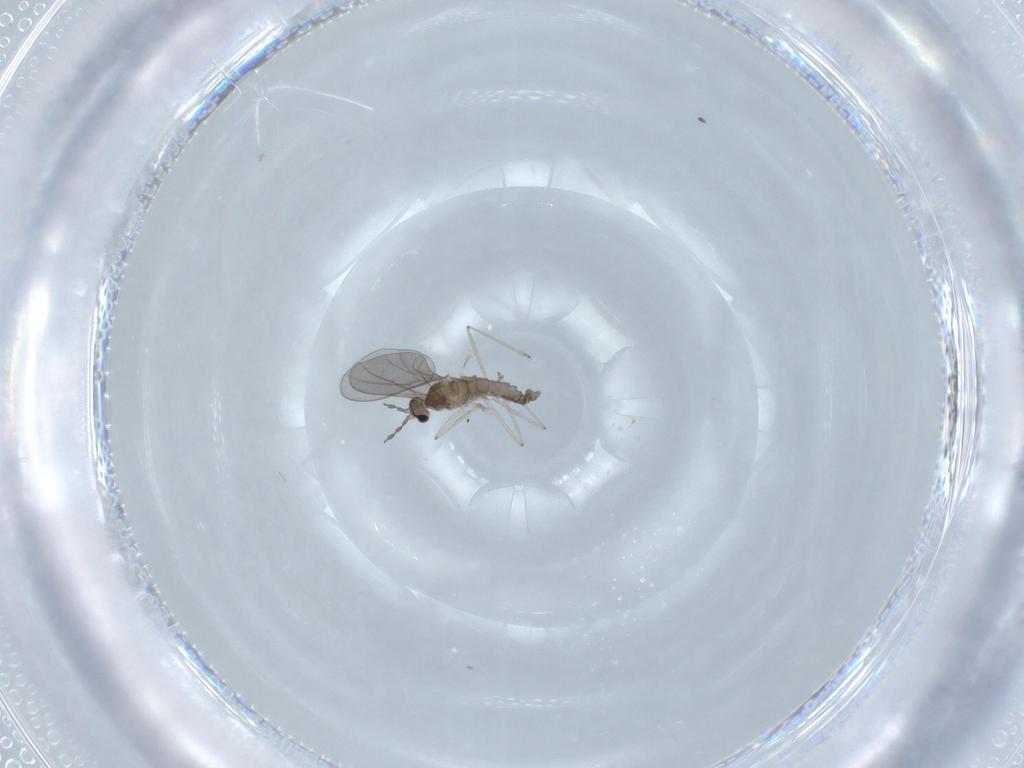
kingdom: Animalia
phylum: Arthropoda
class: Insecta
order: Diptera
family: Cecidomyiidae
